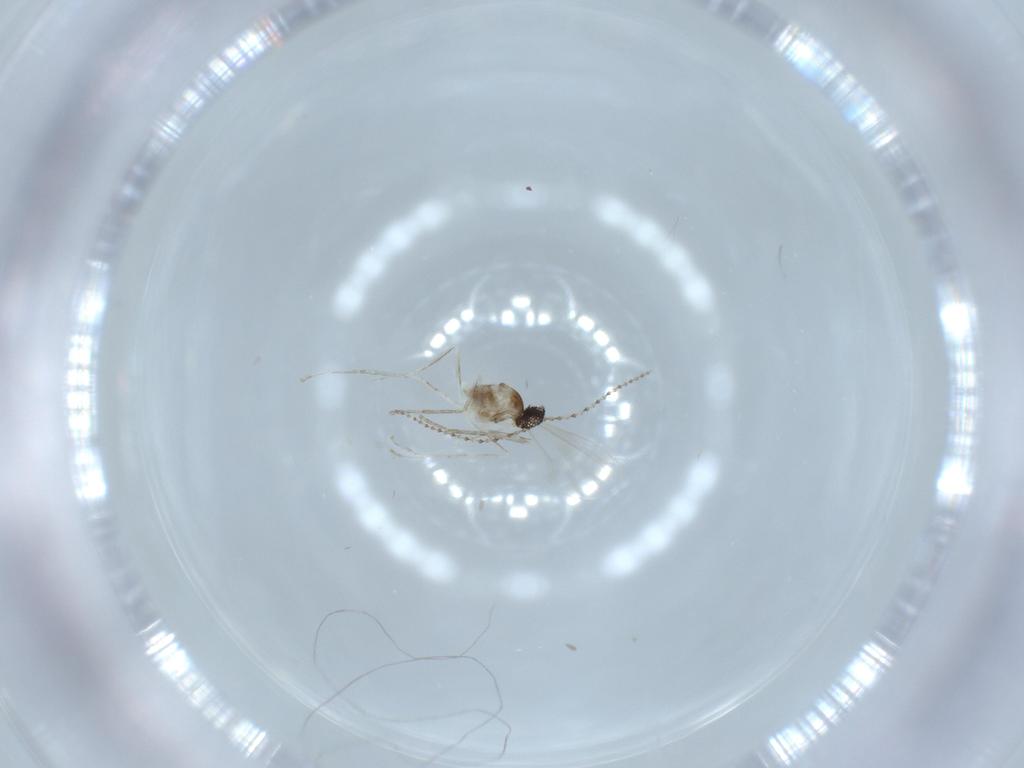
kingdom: Animalia
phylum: Arthropoda
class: Insecta
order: Diptera
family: Cecidomyiidae
